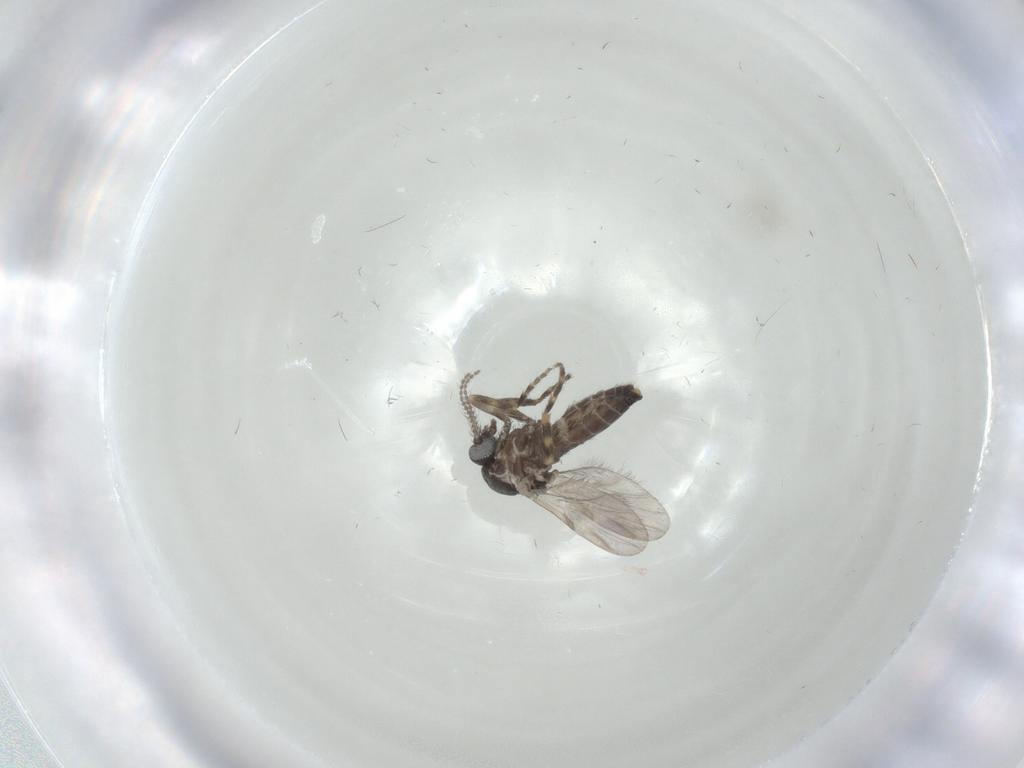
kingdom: Animalia
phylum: Arthropoda
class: Insecta
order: Diptera
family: Ceratopogonidae
